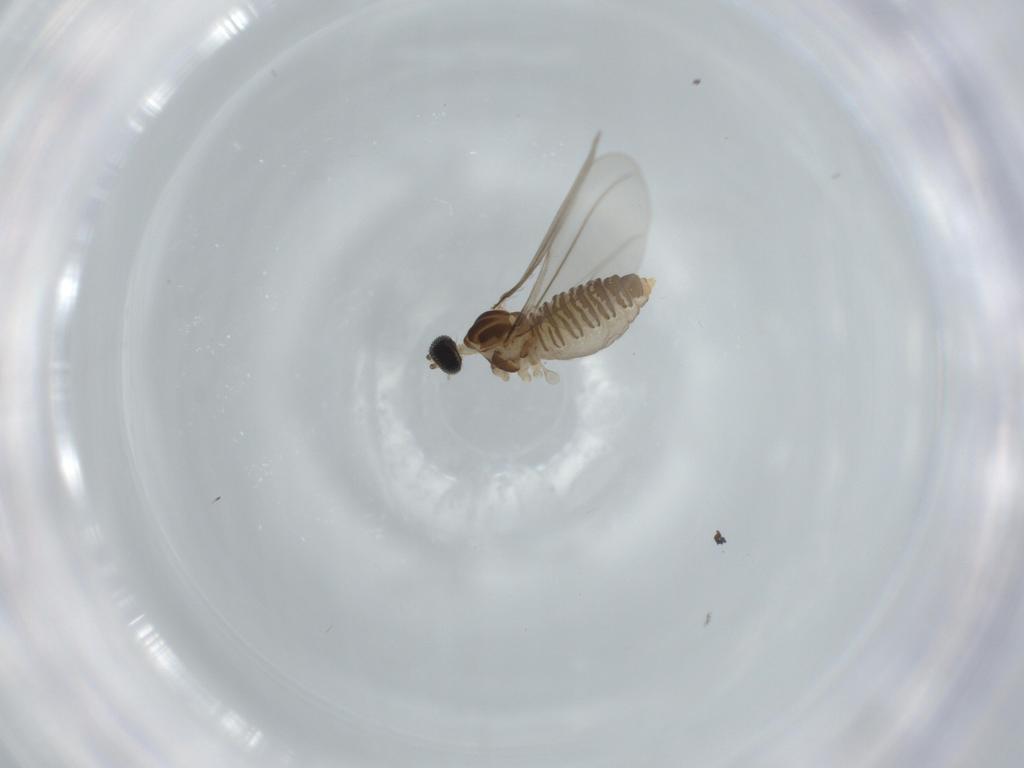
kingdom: Animalia
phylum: Arthropoda
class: Insecta
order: Diptera
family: Cecidomyiidae
